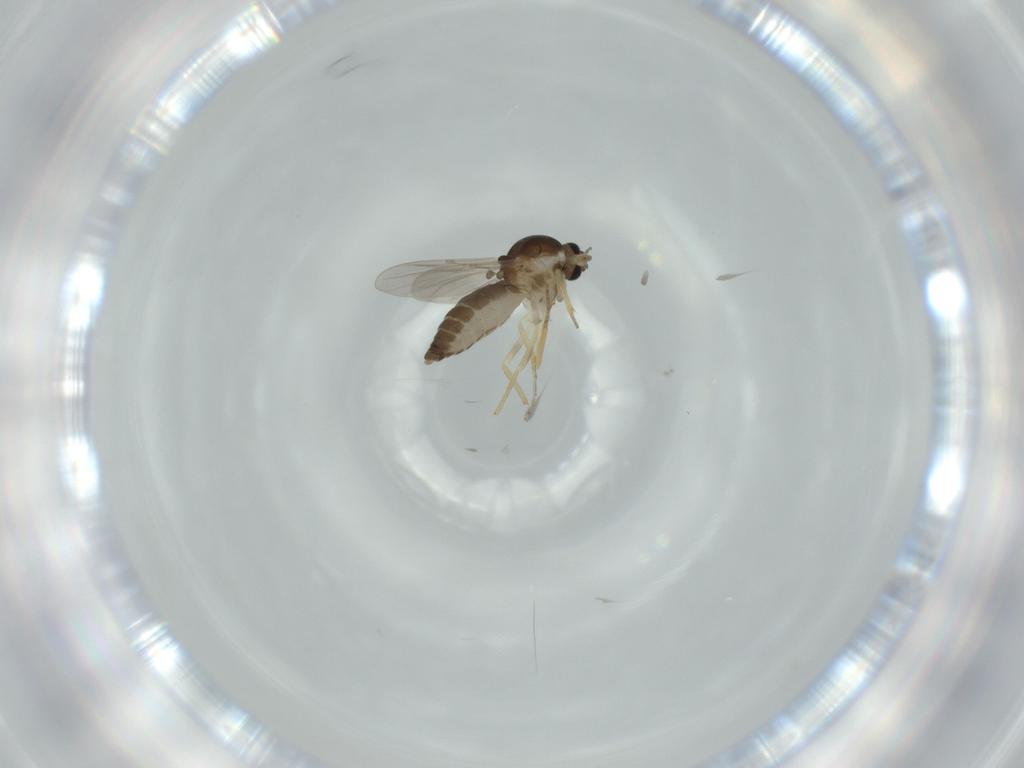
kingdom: Animalia
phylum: Arthropoda
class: Insecta
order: Diptera
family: Ceratopogonidae
